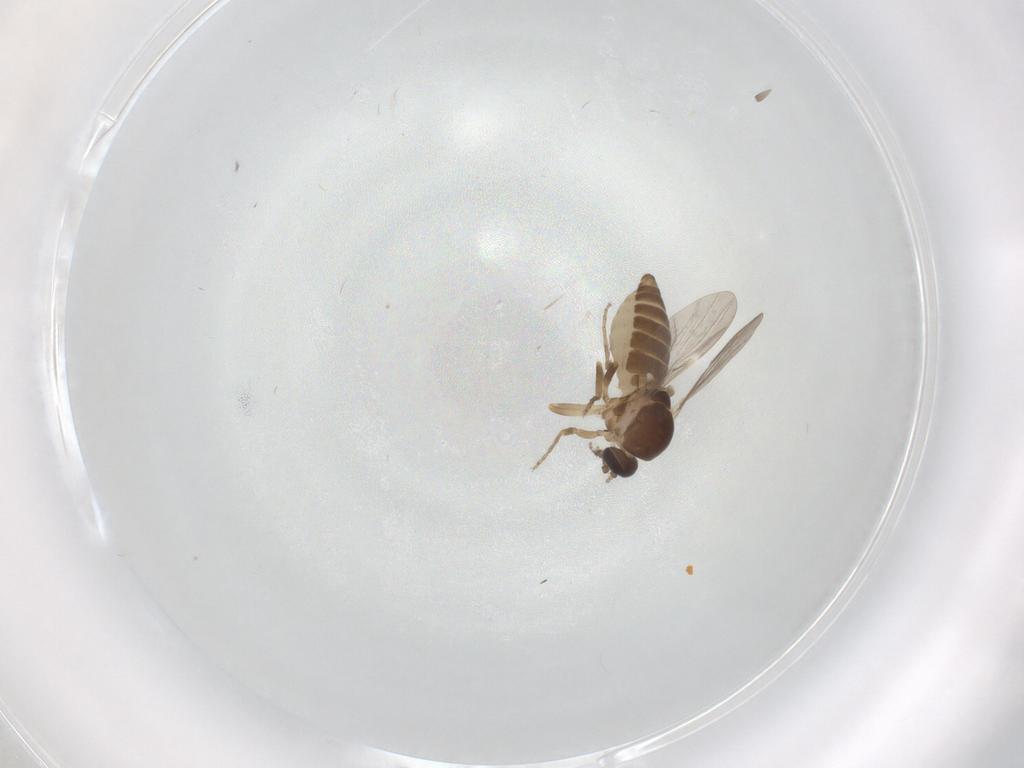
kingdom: Animalia
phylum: Arthropoda
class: Insecta
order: Diptera
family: Ceratopogonidae
